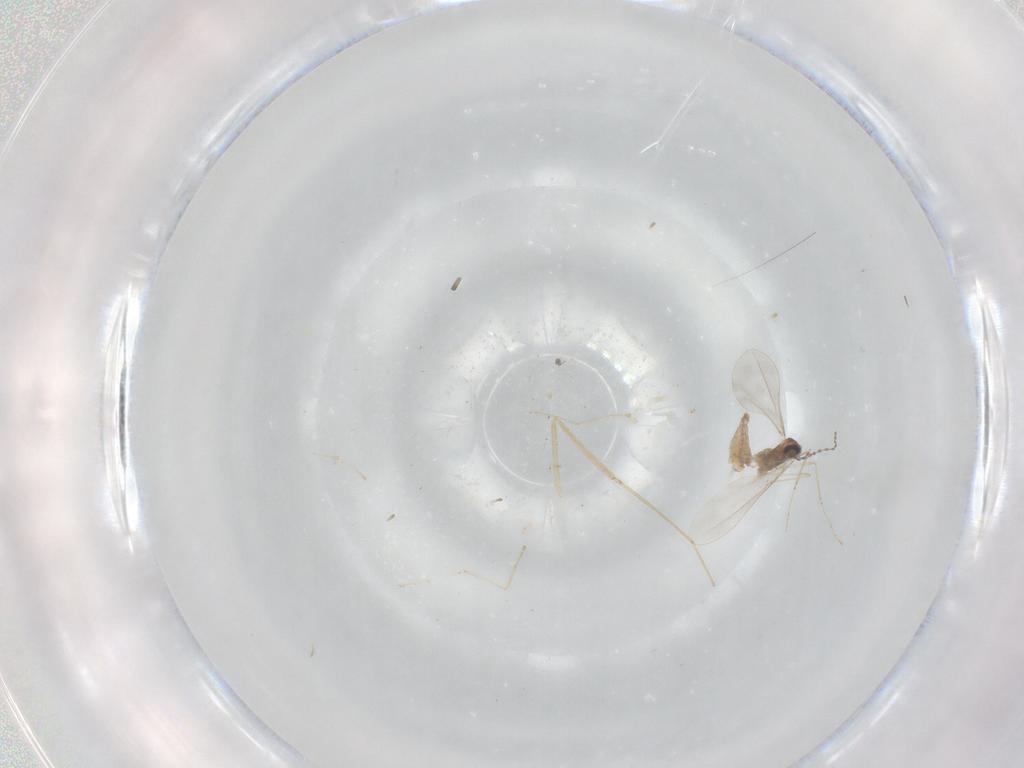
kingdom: Animalia
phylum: Arthropoda
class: Insecta
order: Diptera
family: Cecidomyiidae
